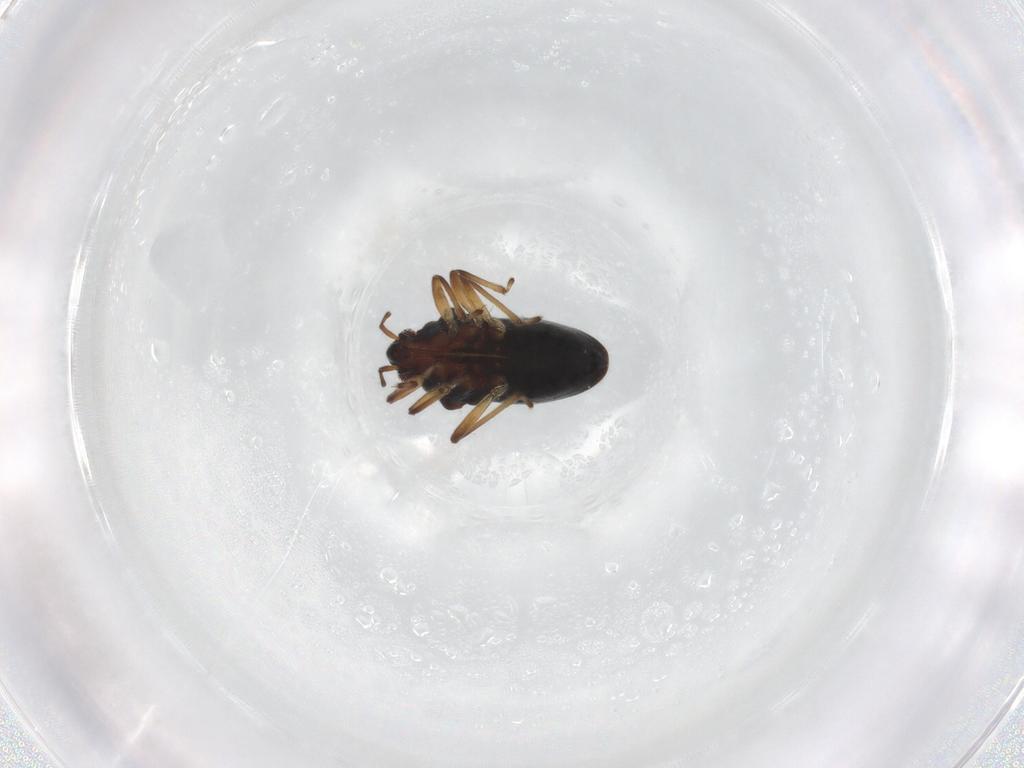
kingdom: Animalia
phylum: Arthropoda
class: Insecta
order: Hemiptera
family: Hebridae
